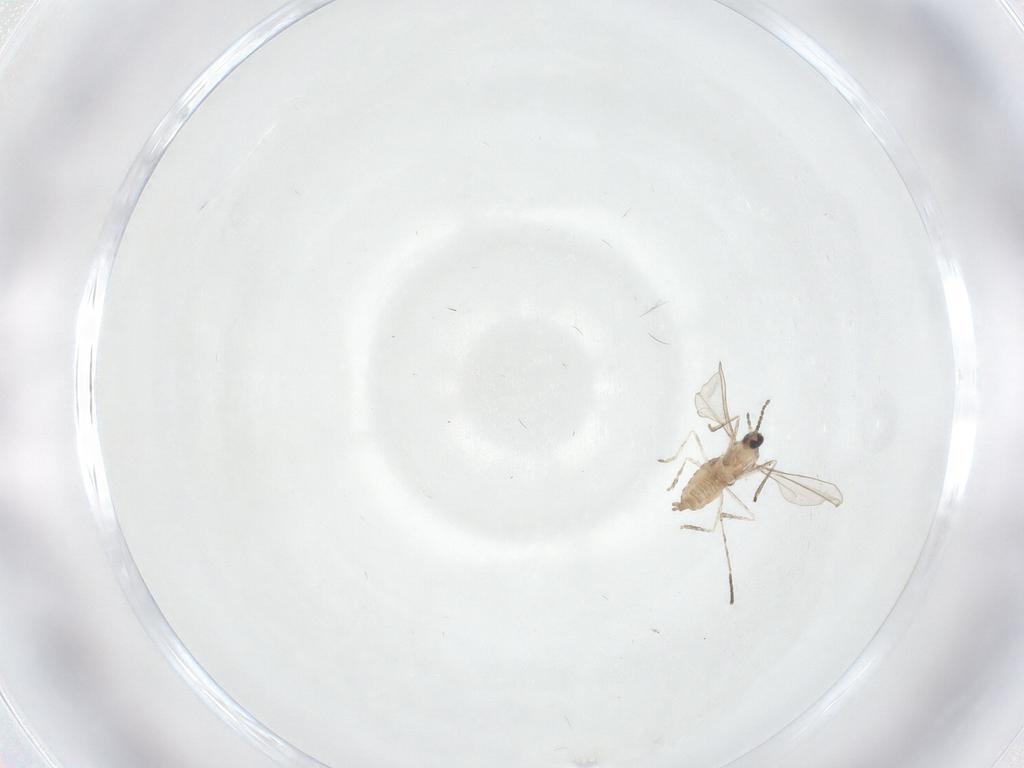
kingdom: Animalia
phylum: Arthropoda
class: Insecta
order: Diptera
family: Cecidomyiidae
